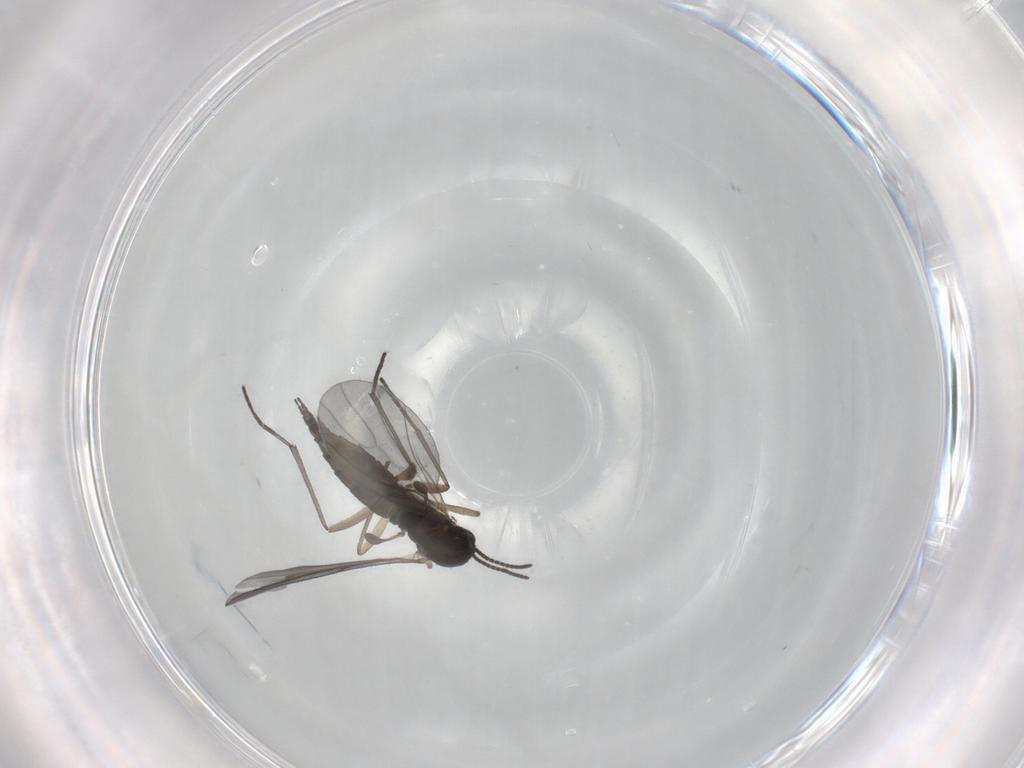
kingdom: Animalia
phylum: Arthropoda
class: Insecta
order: Diptera
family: Sciaridae
